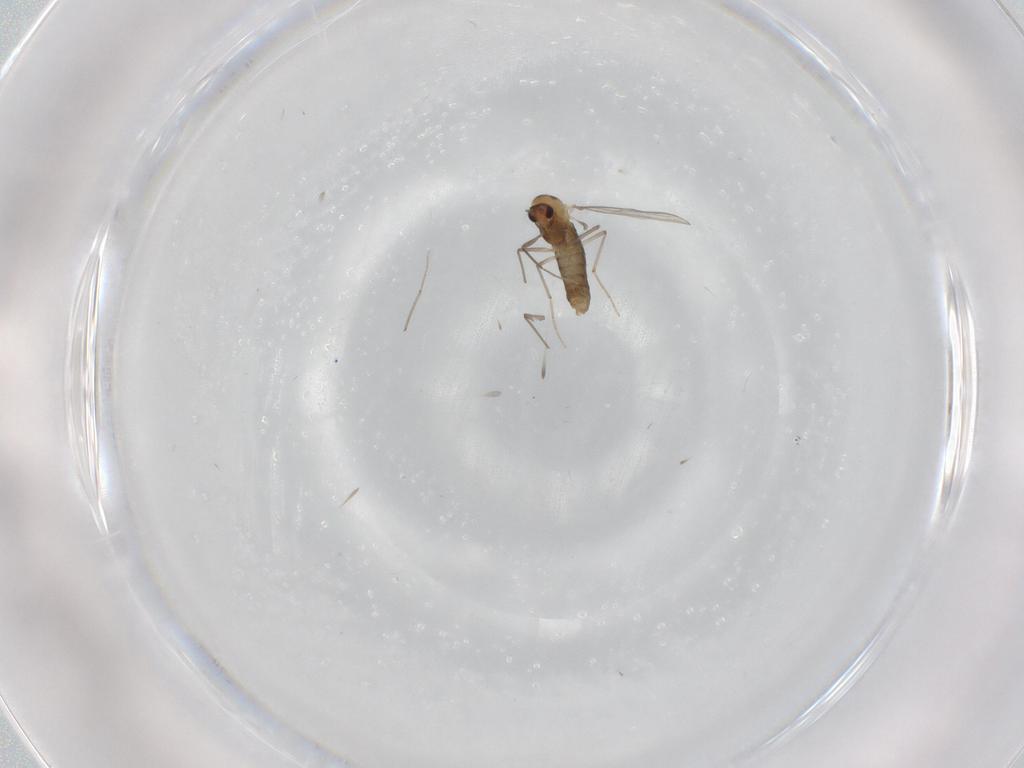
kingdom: Animalia
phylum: Arthropoda
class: Insecta
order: Diptera
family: Chironomidae
